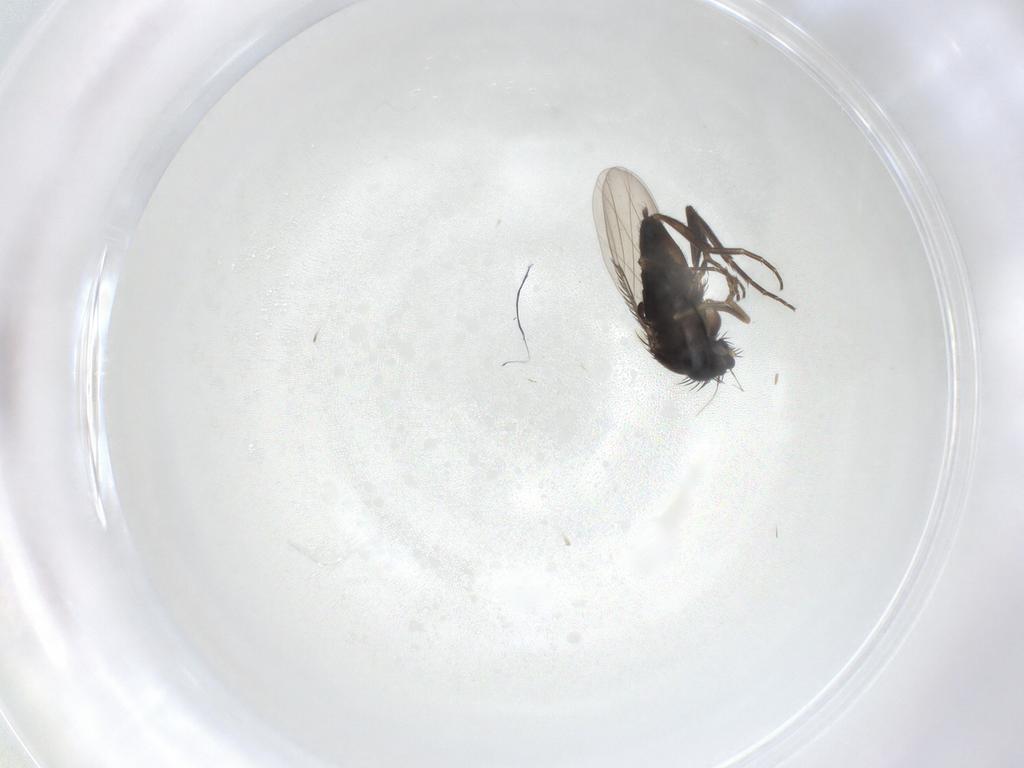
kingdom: Animalia
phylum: Arthropoda
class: Insecta
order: Diptera
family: Phoridae
